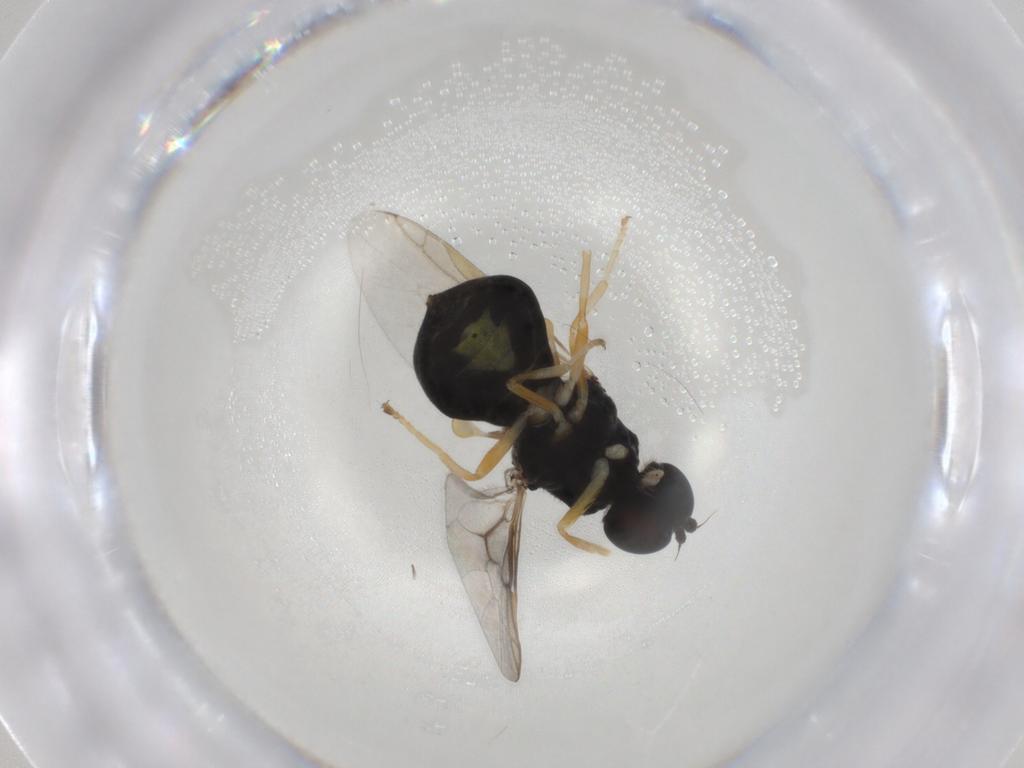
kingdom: Animalia
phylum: Arthropoda
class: Insecta
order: Diptera
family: Stratiomyidae
